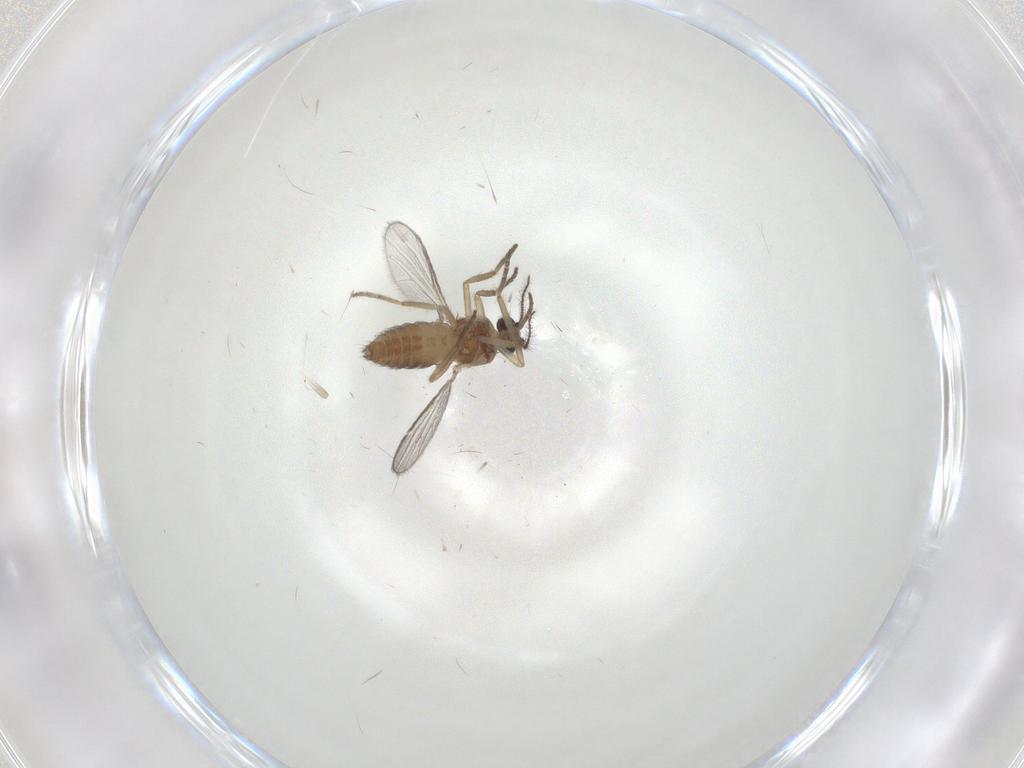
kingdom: Animalia
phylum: Arthropoda
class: Insecta
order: Diptera
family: Ceratopogonidae
